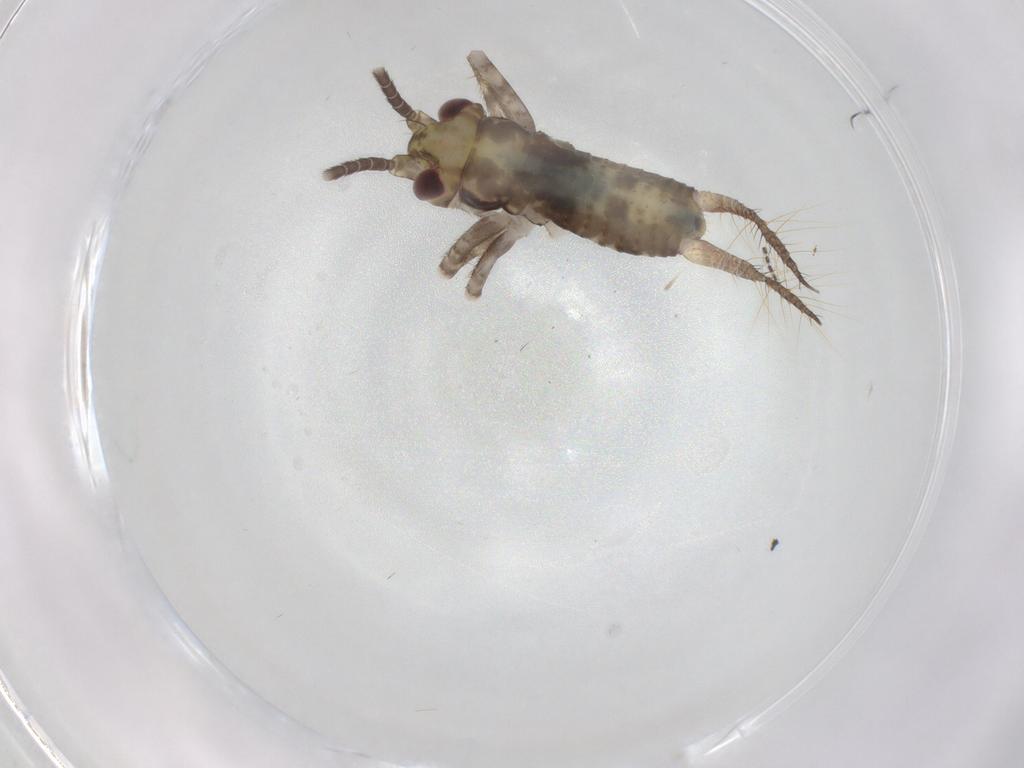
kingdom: Animalia
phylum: Arthropoda
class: Insecta
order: Orthoptera
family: Gryllidae
